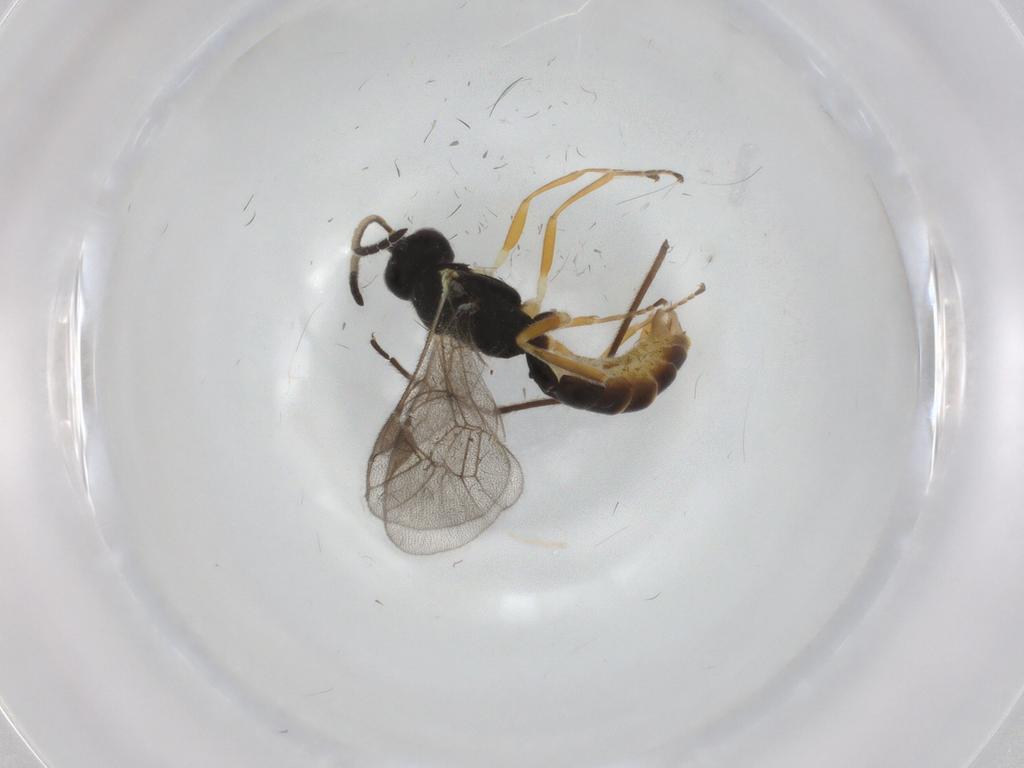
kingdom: Animalia
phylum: Arthropoda
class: Insecta
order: Hymenoptera
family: Ichneumonidae
